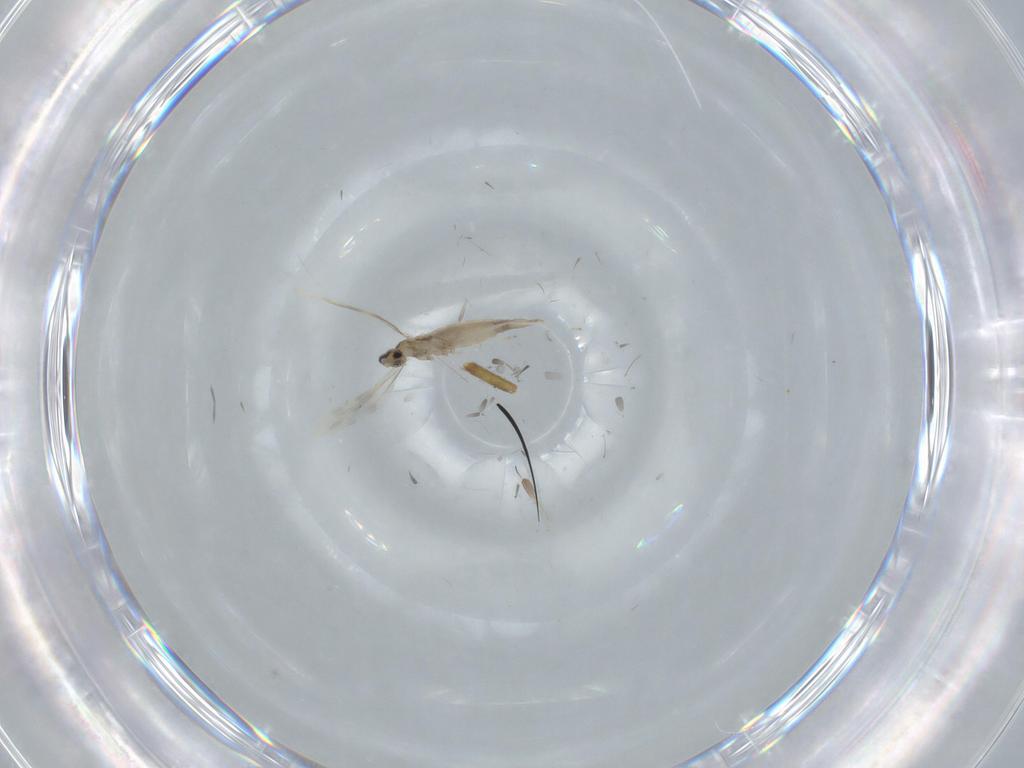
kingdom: Animalia
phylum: Arthropoda
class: Insecta
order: Diptera
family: Dolichopodidae
